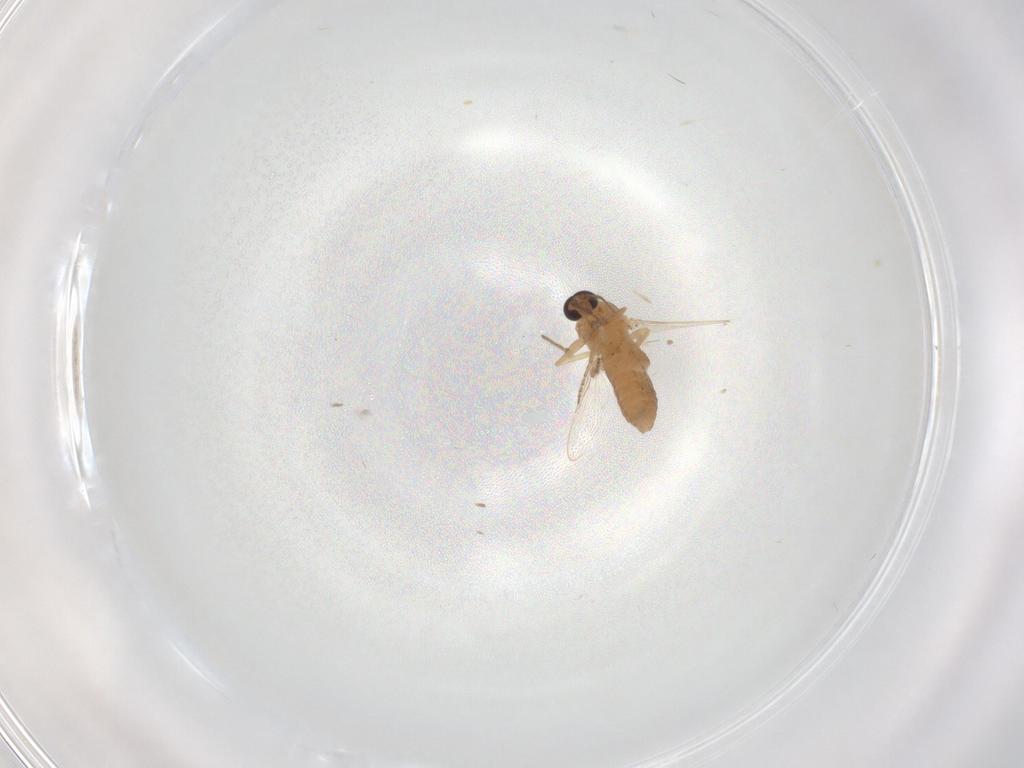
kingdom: Animalia
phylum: Arthropoda
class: Insecta
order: Diptera
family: Ceratopogonidae
